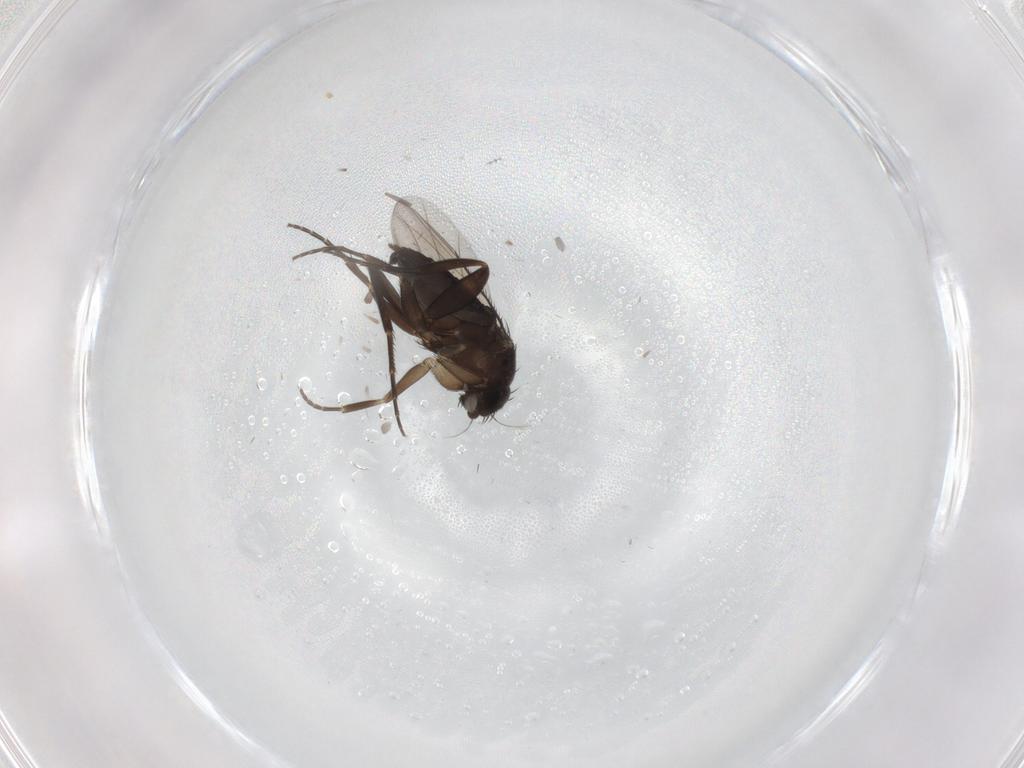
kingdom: Animalia
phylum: Arthropoda
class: Insecta
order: Diptera
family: Phoridae
